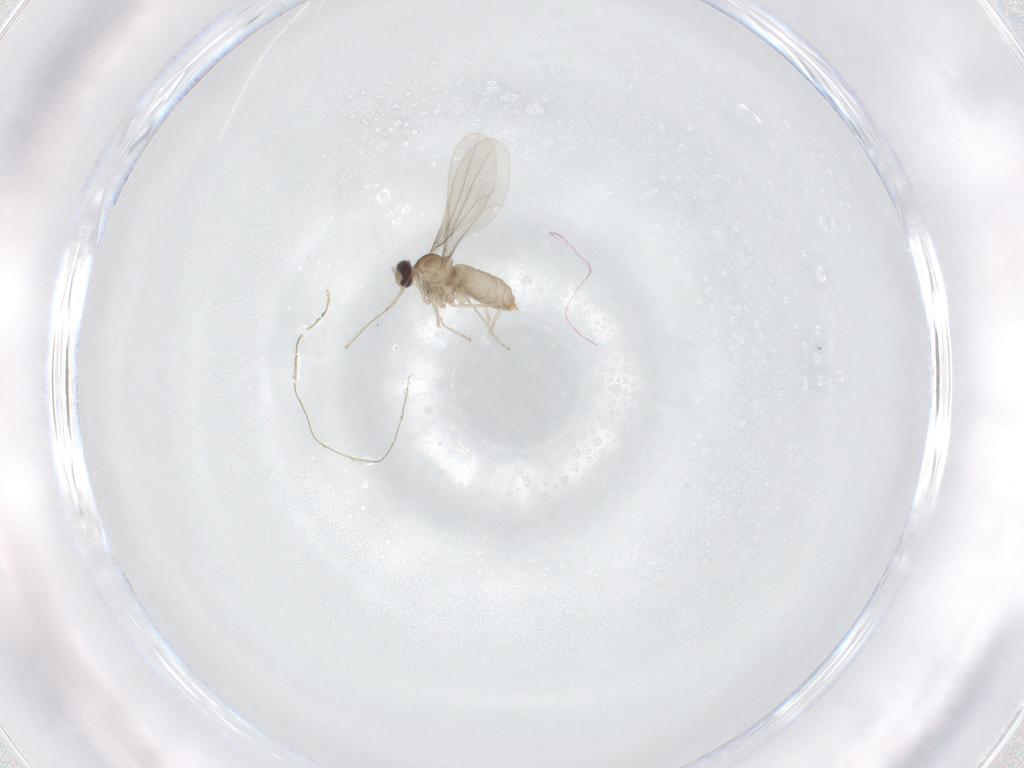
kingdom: Animalia
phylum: Arthropoda
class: Insecta
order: Diptera
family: Cecidomyiidae
